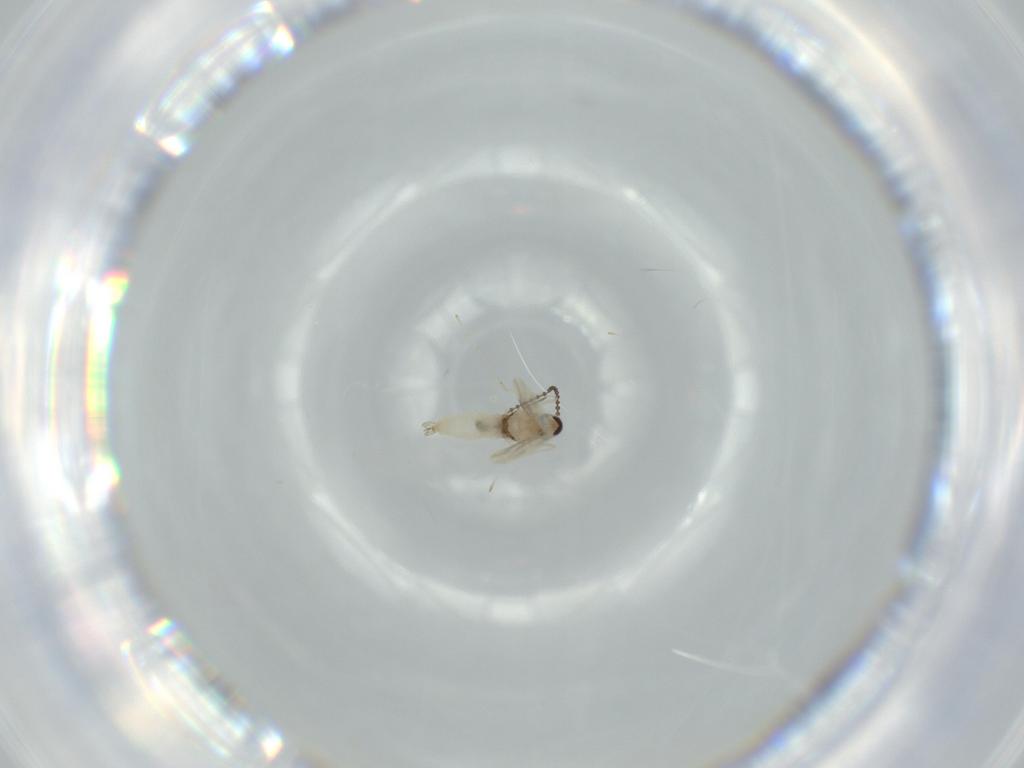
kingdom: Animalia
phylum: Arthropoda
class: Insecta
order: Diptera
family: Cecidomyiidae
